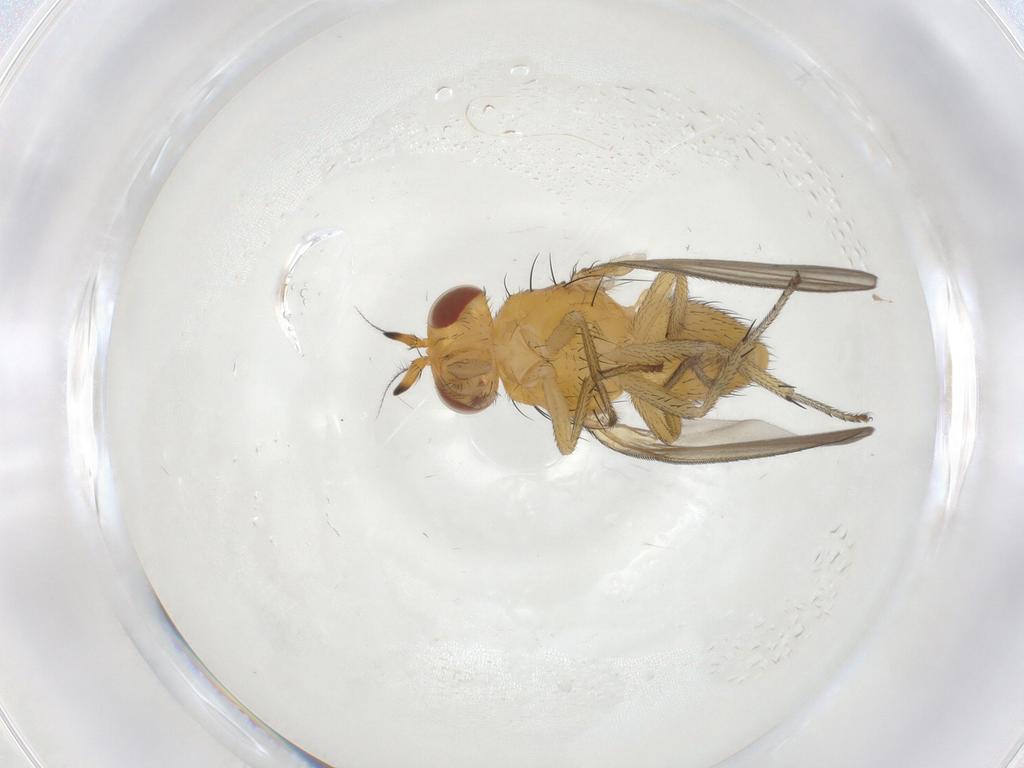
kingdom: Animalia
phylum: Arthropoda
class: Insecta
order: Diptera
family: Lauxaniidae
